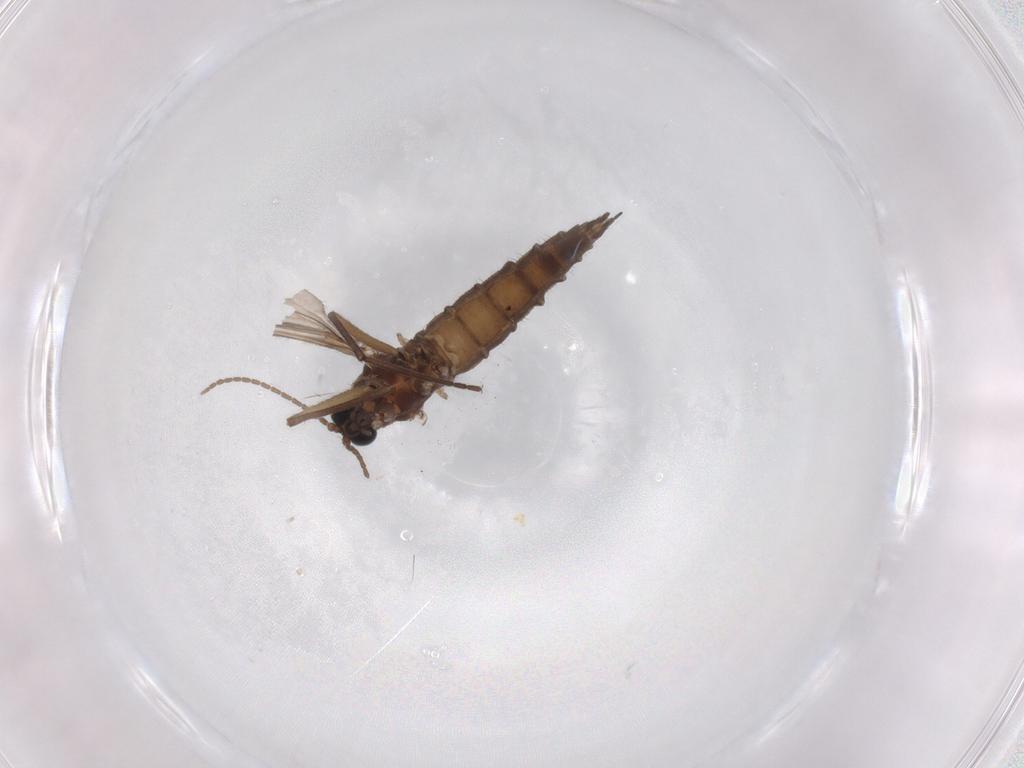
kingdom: Animalia
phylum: Arthropoda
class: Insecta
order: Diptera
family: Sciaridae
